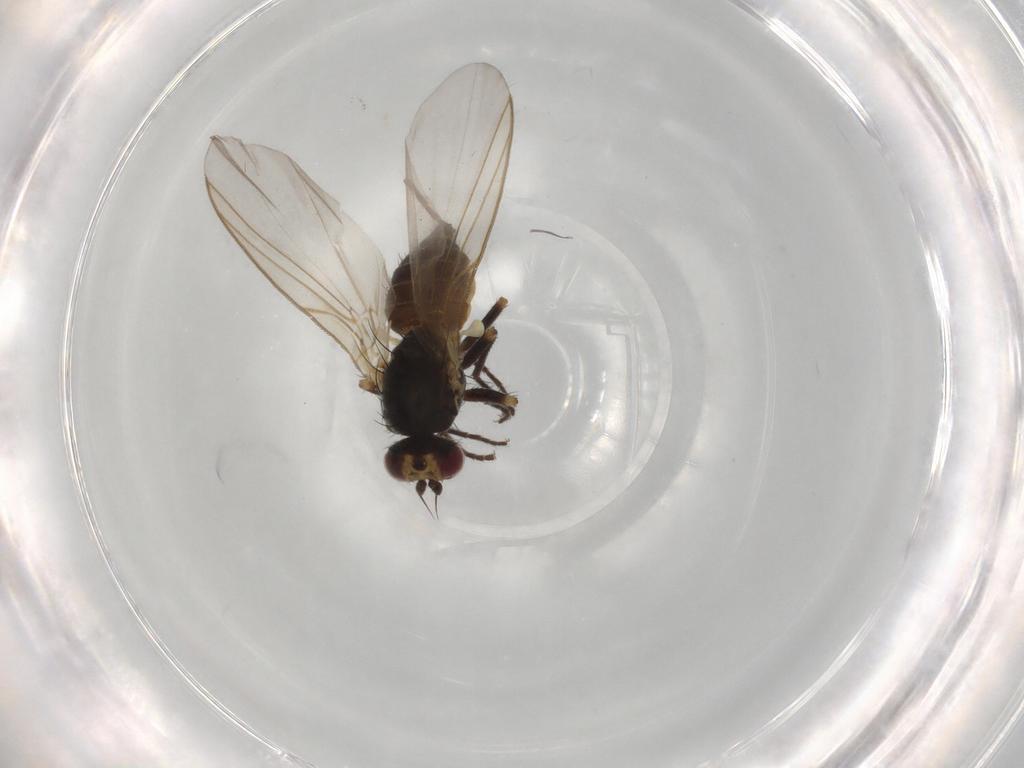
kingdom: Animalia
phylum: Arthropoda
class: Insecta
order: Diptera
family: Agromyzidae
